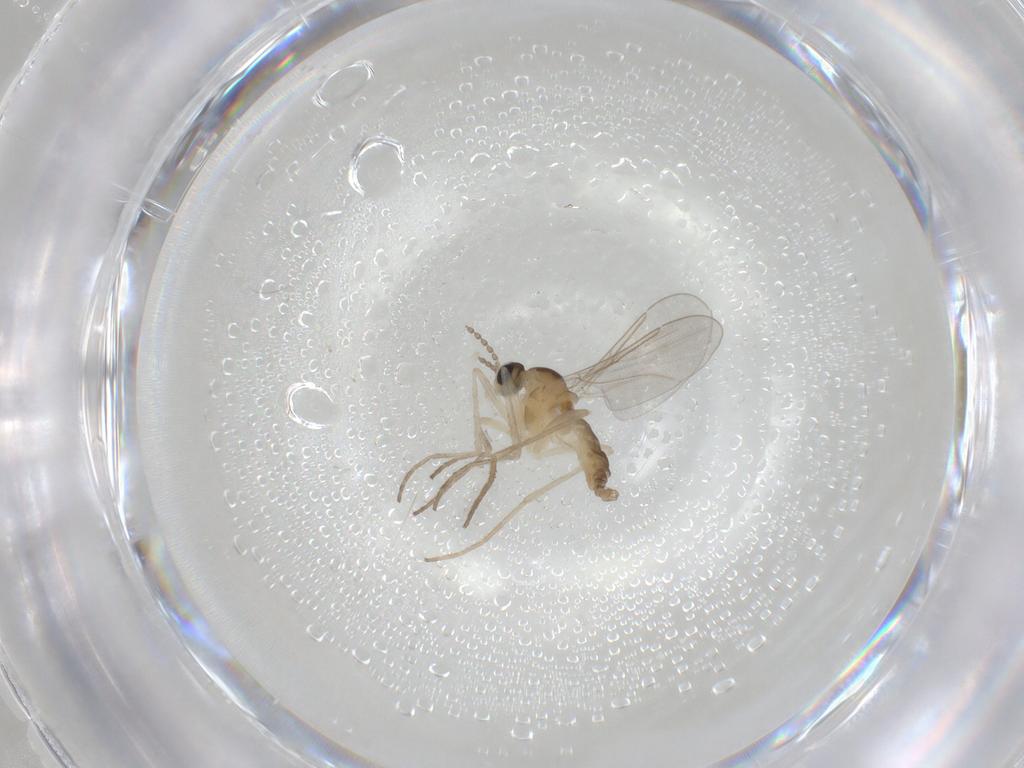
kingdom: Animalia
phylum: Arthropoda
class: Insecta
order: Diptera
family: Cecidomyiidae
